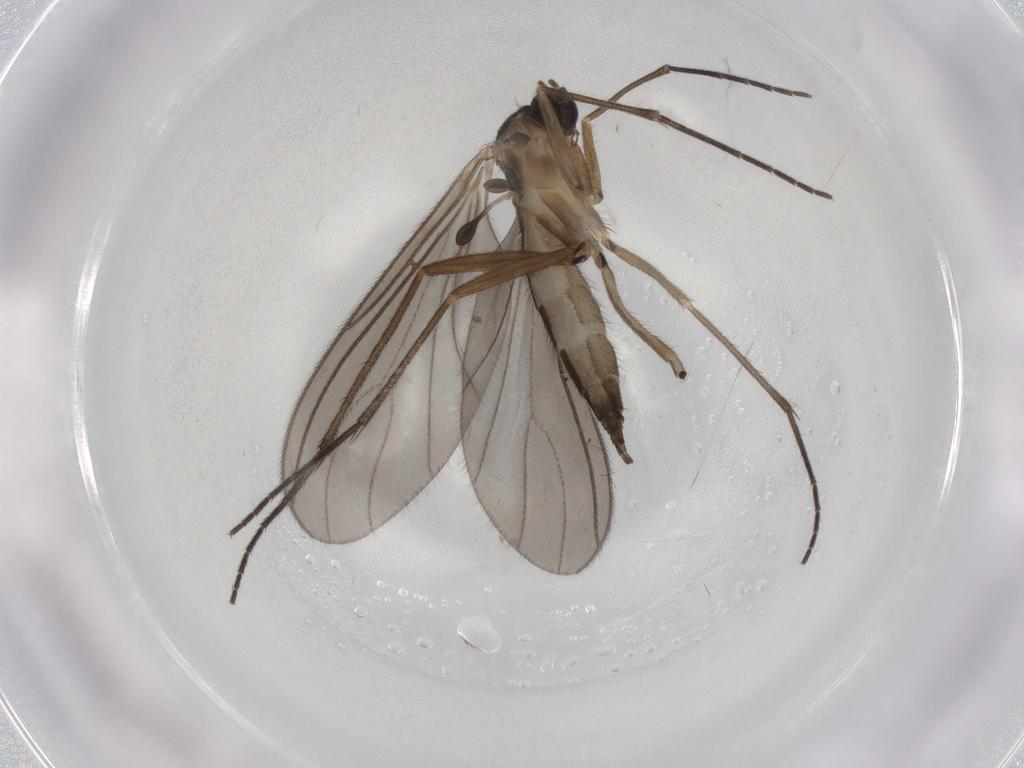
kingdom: Animalia
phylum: Arthropoda
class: Insecta
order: Diptera
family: Sciaridae
